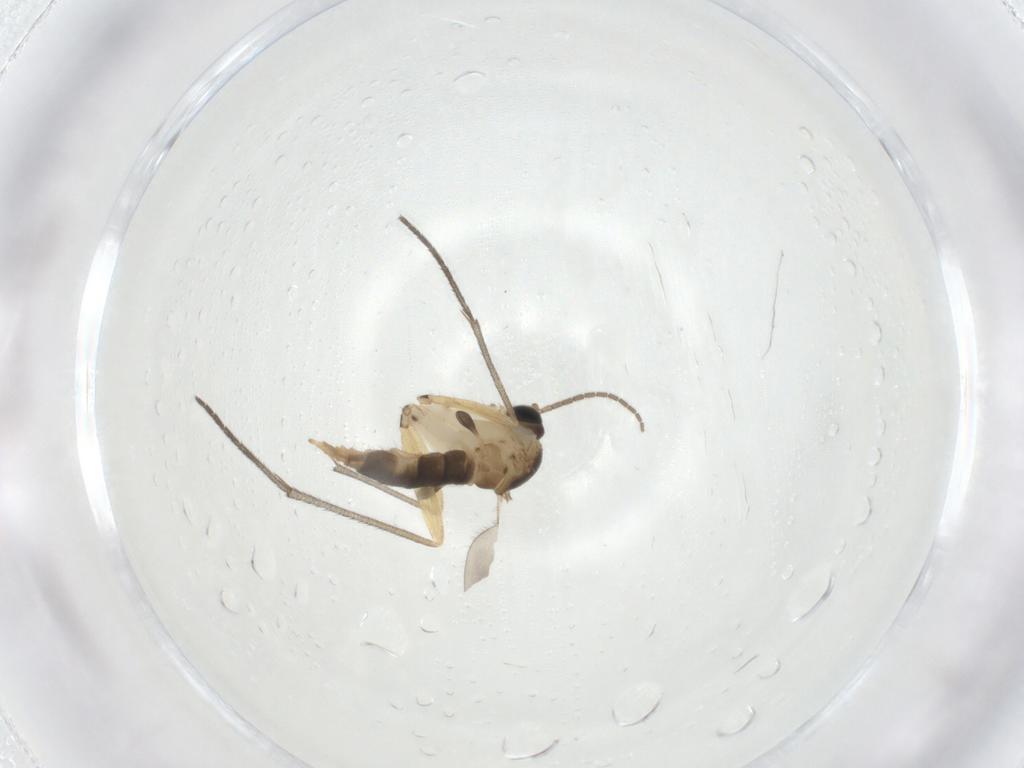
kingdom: Animalia
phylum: Arthropoda
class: Insecta
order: Diptera
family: Sciaridae
